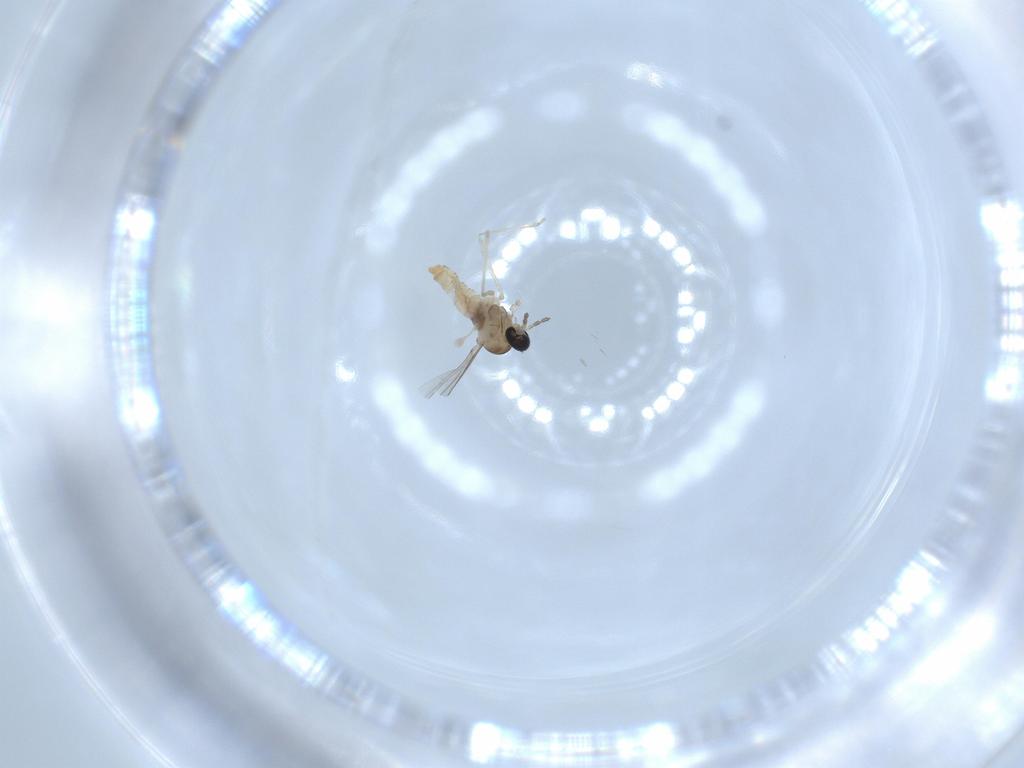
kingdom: Animalia
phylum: Arthropoda
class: Insecta
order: Diptera
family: Cecidomyiidae
